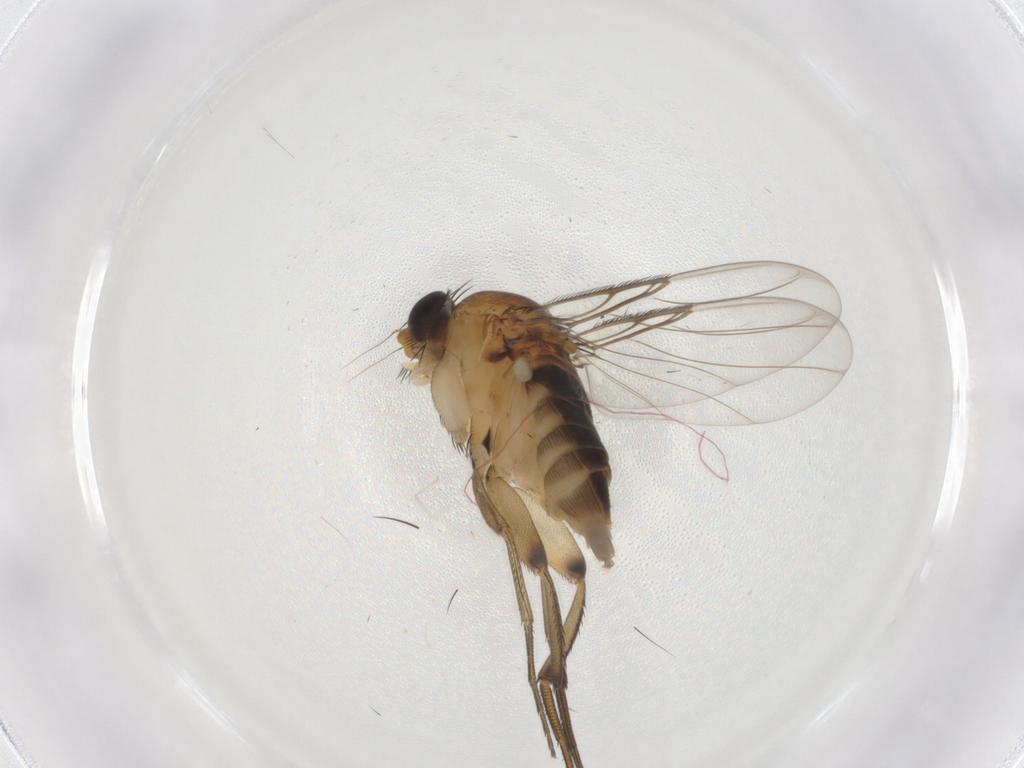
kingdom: Animalia
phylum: Arthropoda
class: Insecta
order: Diptera
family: Phoridae
